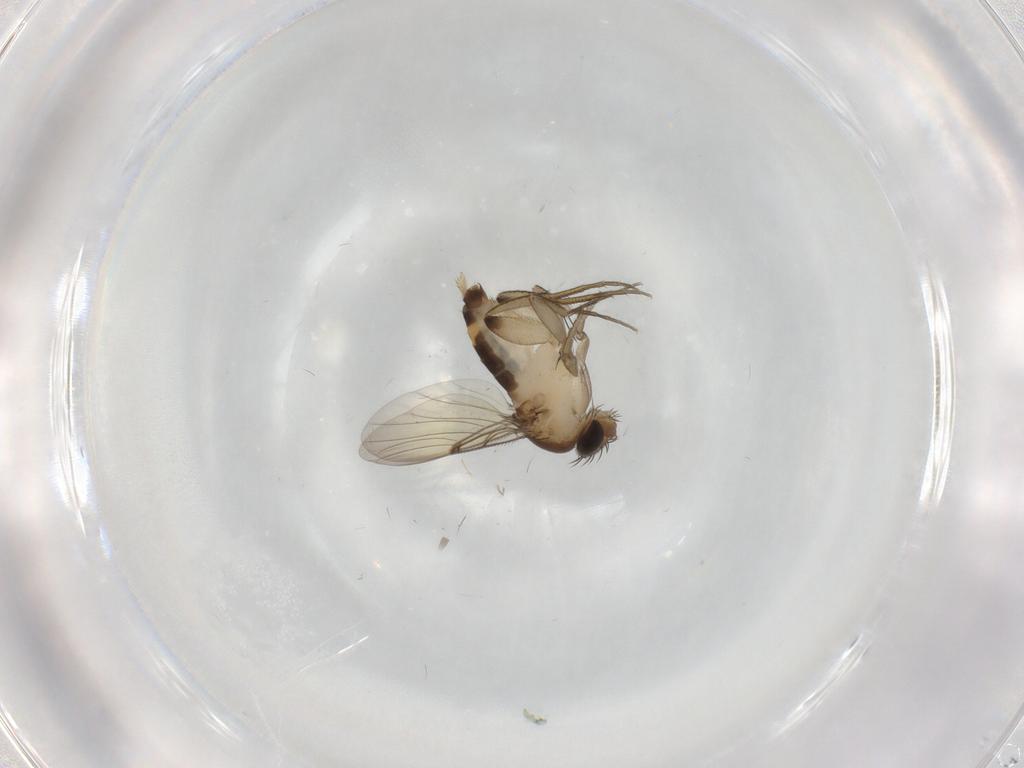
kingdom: Animalia
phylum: Arthropoda
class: Insecta
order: Diptera
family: Phoridae
